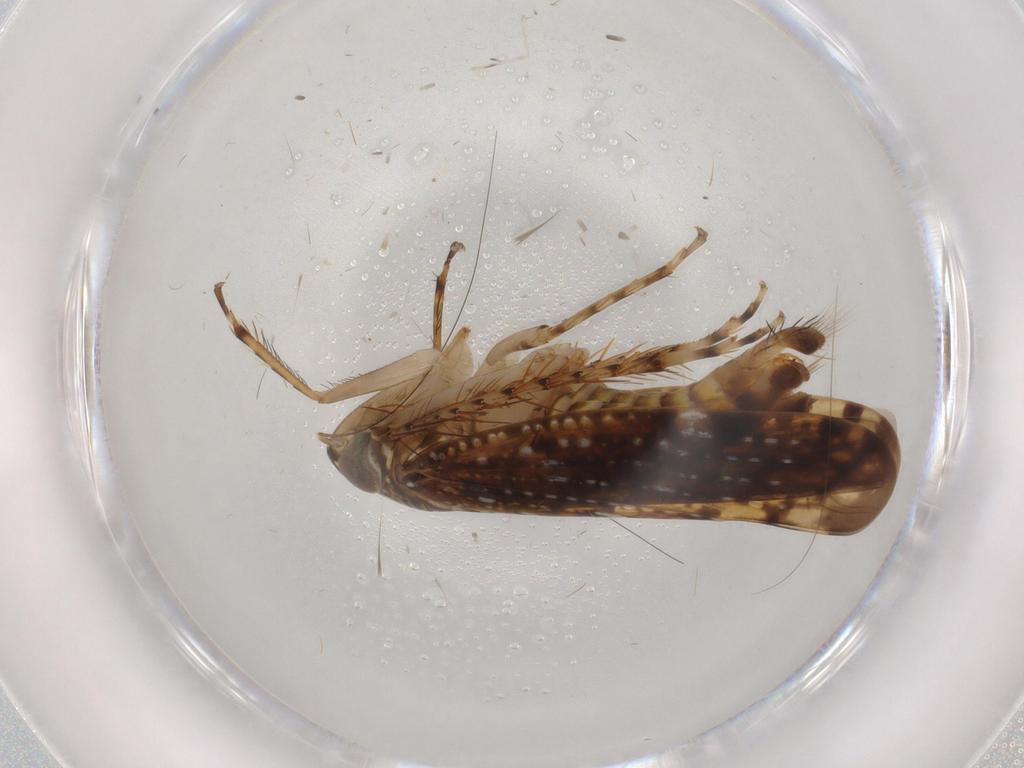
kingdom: Animalia
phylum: Arthropoda
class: Insecta
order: Hemiptera
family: Cicadellidae
